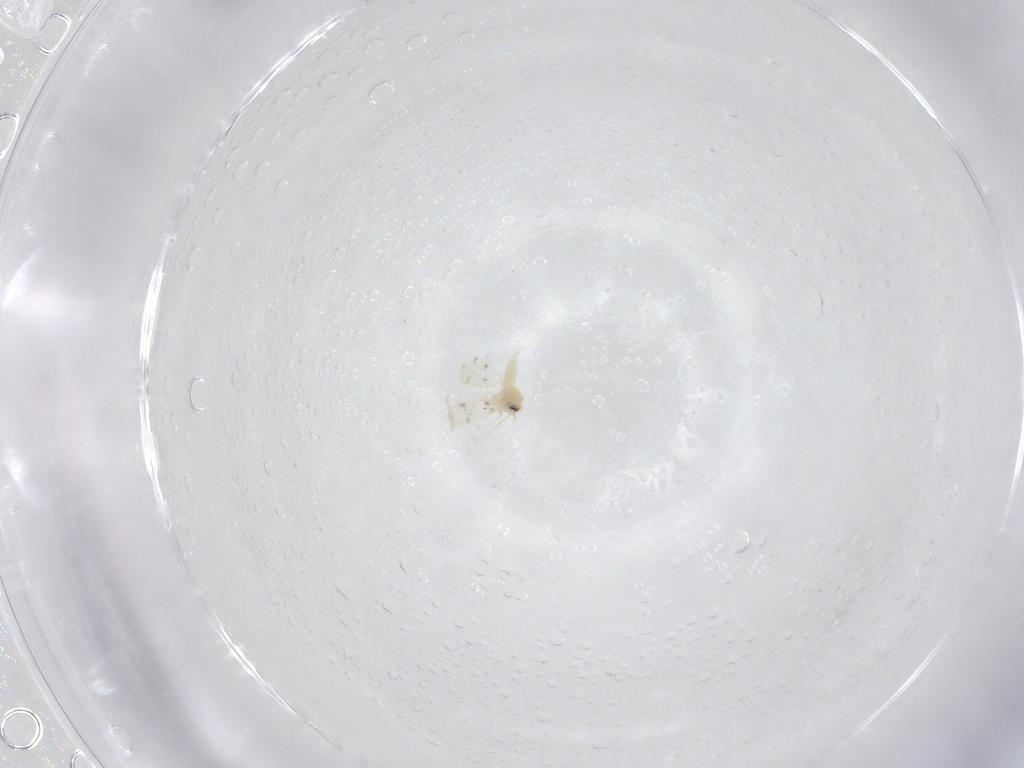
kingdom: Animalia
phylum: Arthropoda
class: Insecta
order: Hemiptera
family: Aleyrodidae
